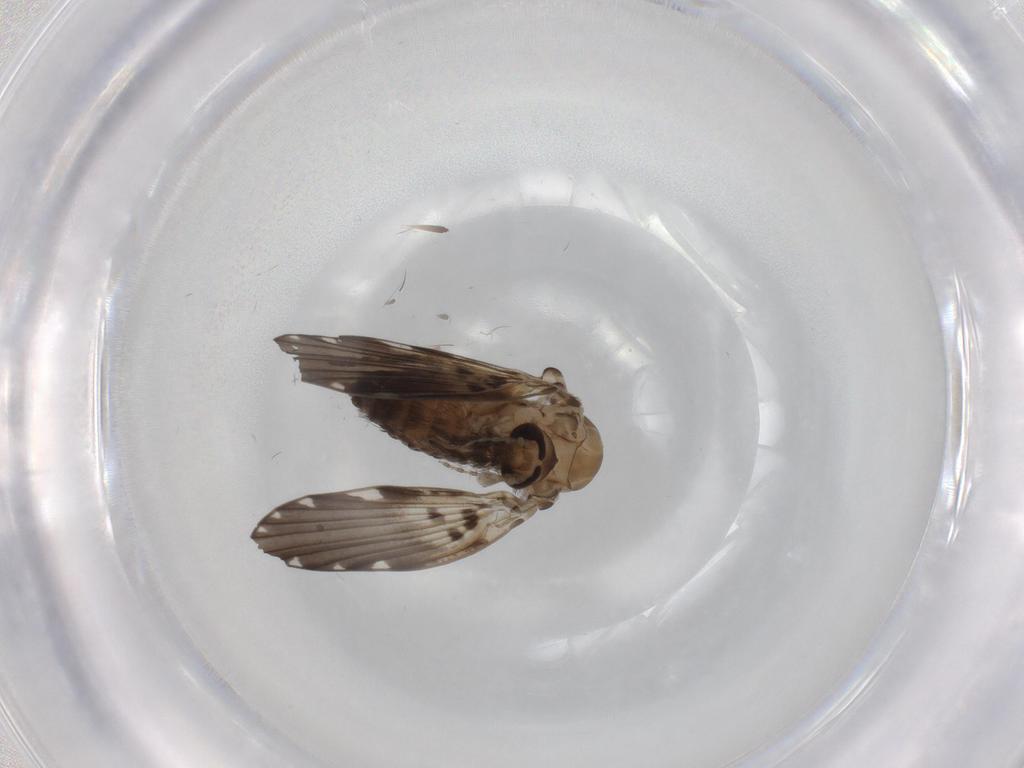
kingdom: Animalia
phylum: Arthropoda
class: Insecta
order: Diptera
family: Psychodidae
